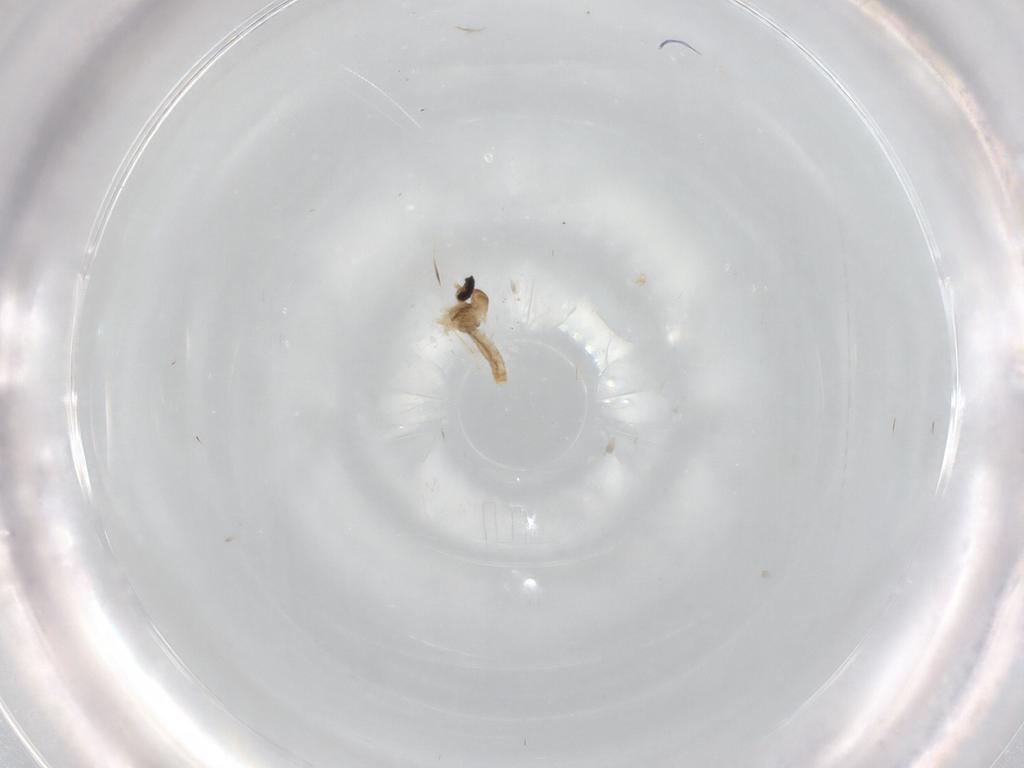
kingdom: Animalia
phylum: Arthropoda
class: Insecta
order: Diptera
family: Cecidomyiidae
